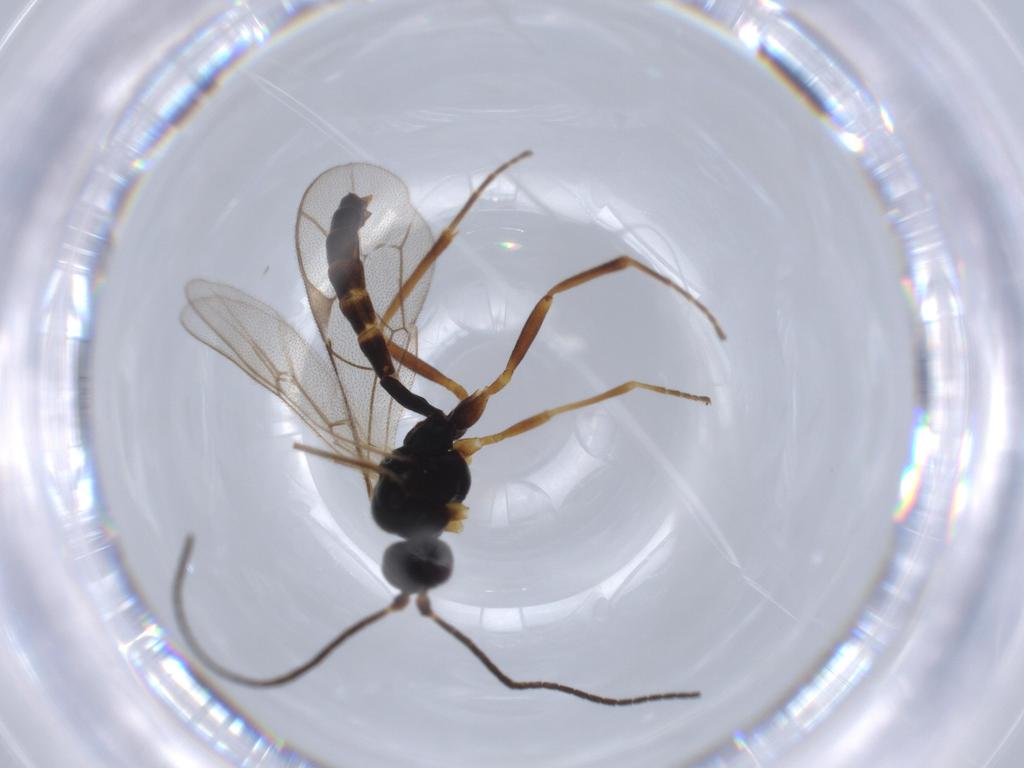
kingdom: Animalia
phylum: Arthropoda
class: Insecta
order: Hymenoptera
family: Ichneumonidae
